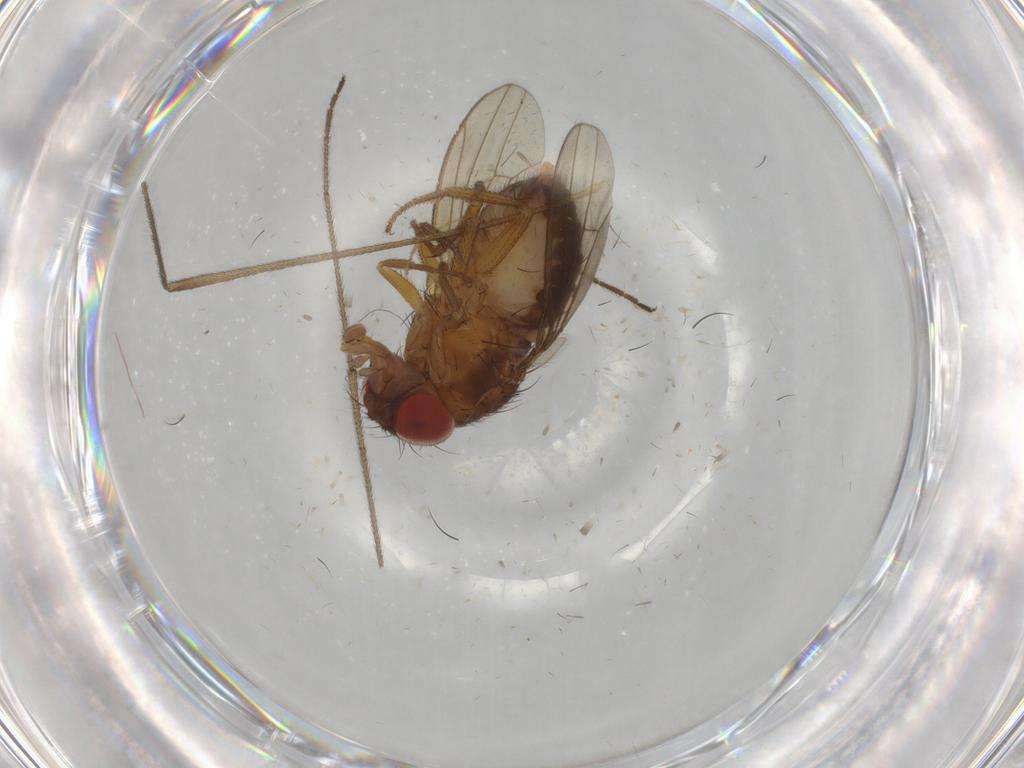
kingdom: Animalia
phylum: Arthropoda
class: Insecta
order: Diptera
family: Drosophilidae
